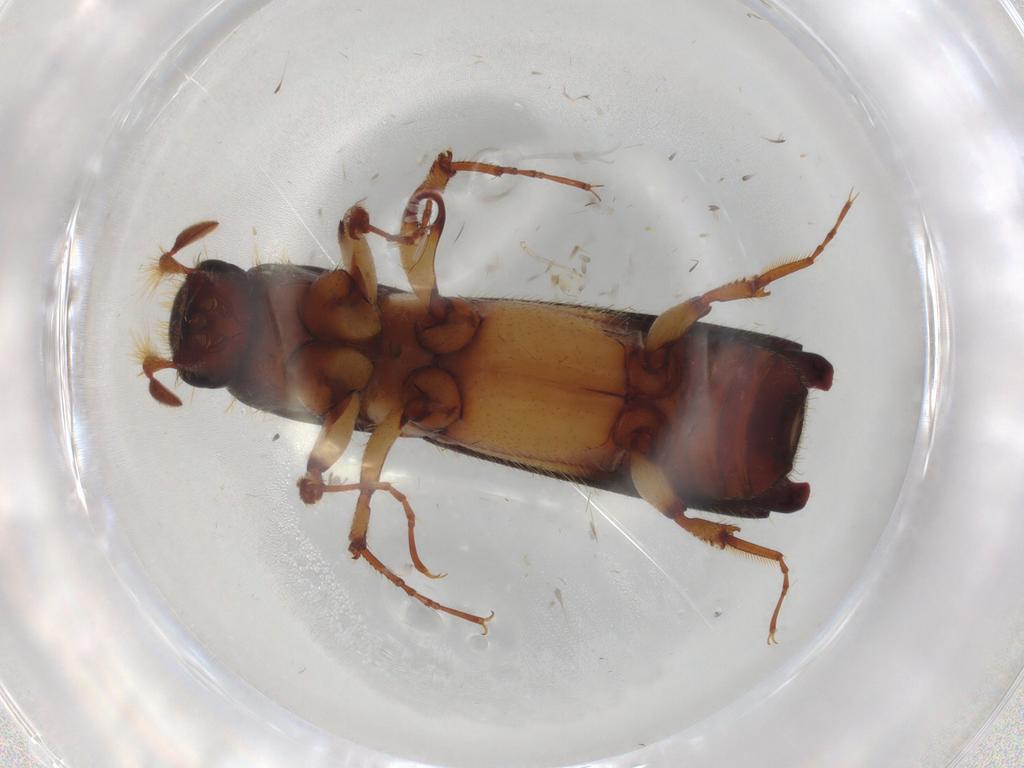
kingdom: Animalia
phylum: Arthropoda
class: Insecta
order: Coleoptera
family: Curculionidae
